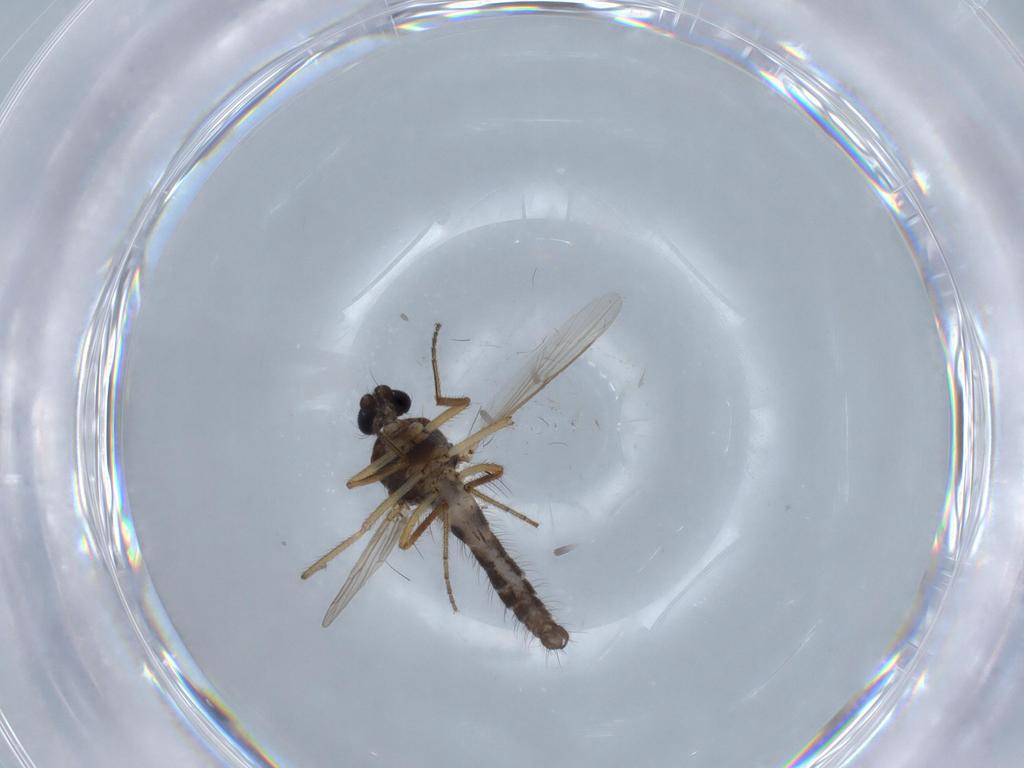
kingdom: Animalia
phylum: Arthropoda
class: Insecta
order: Diptera
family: Ceratopogonidae
